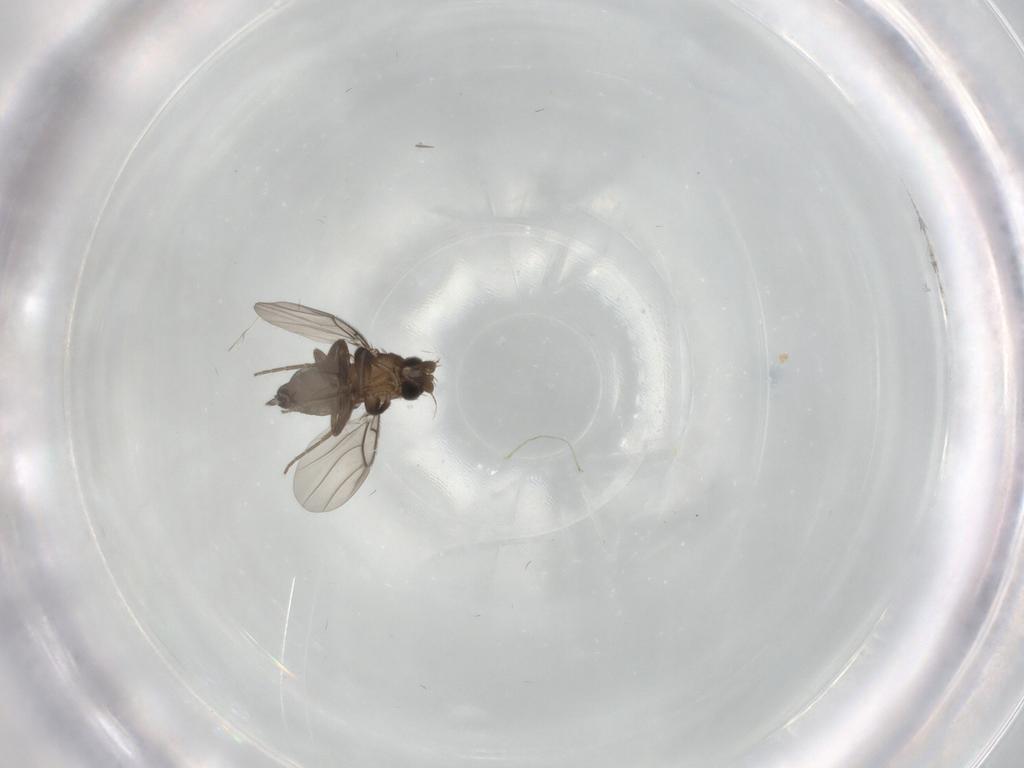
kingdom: Animalia
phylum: Arthropoda
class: Insecta
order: Diptera
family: Phoridae
